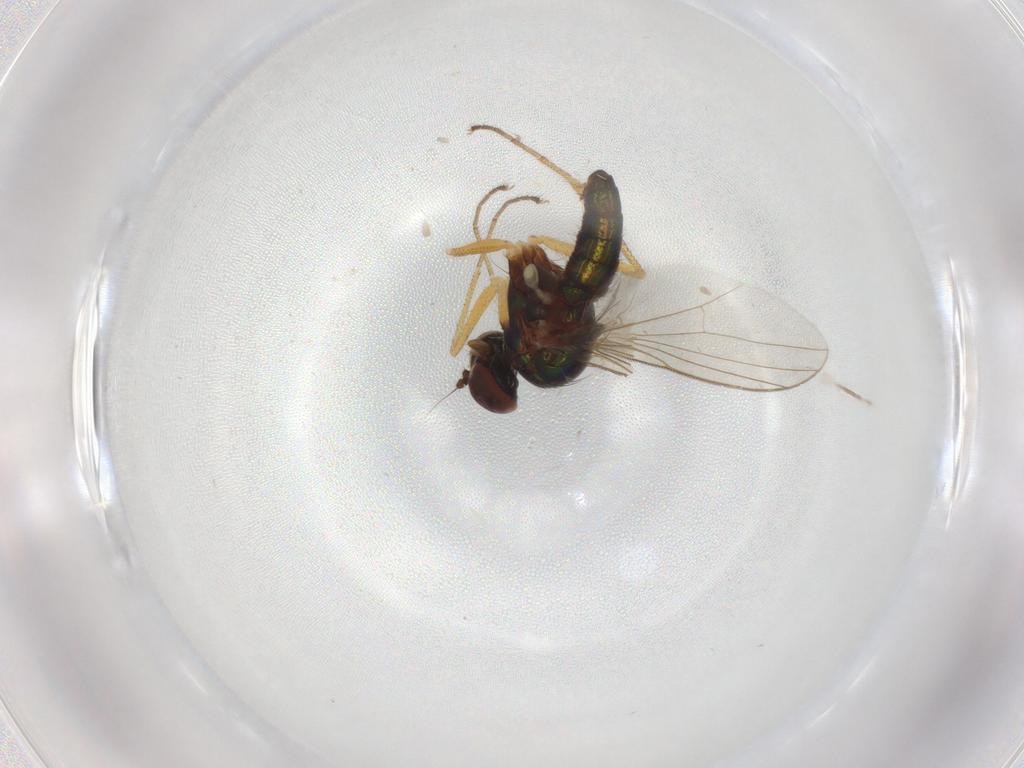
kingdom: Animalia
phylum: Arthropoda
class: Insecta
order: Diptera
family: Dolichopodidae
